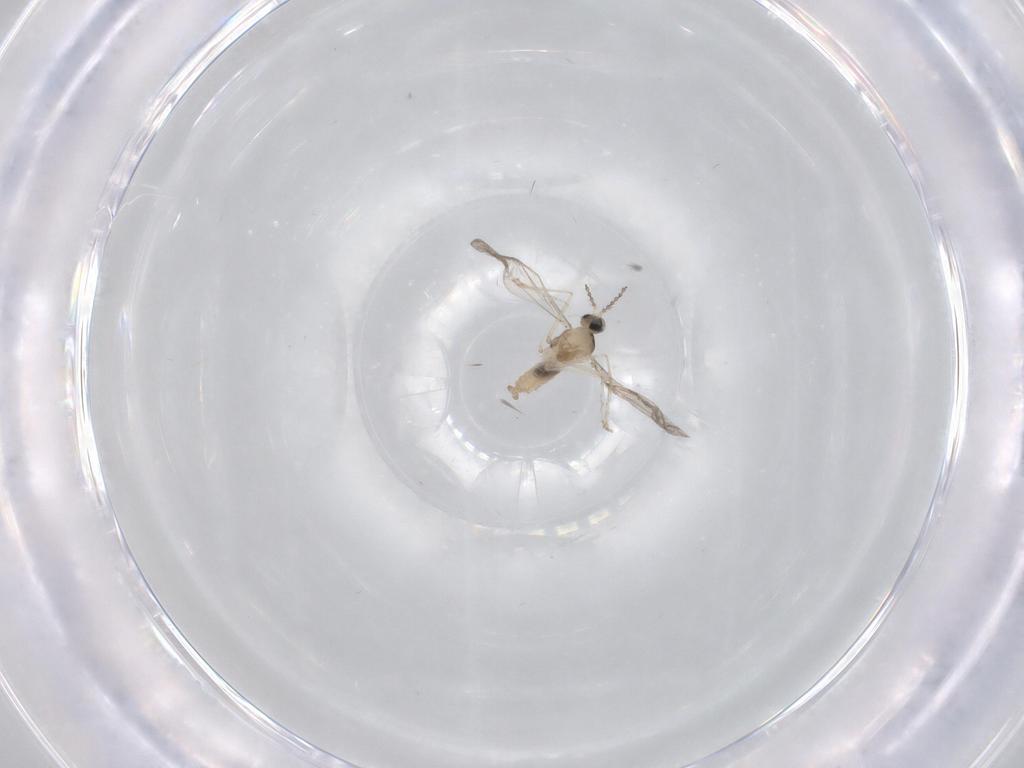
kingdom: Animalia
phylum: Arthropoda
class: Insecta
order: Diptera
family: Cecidomyiidae
